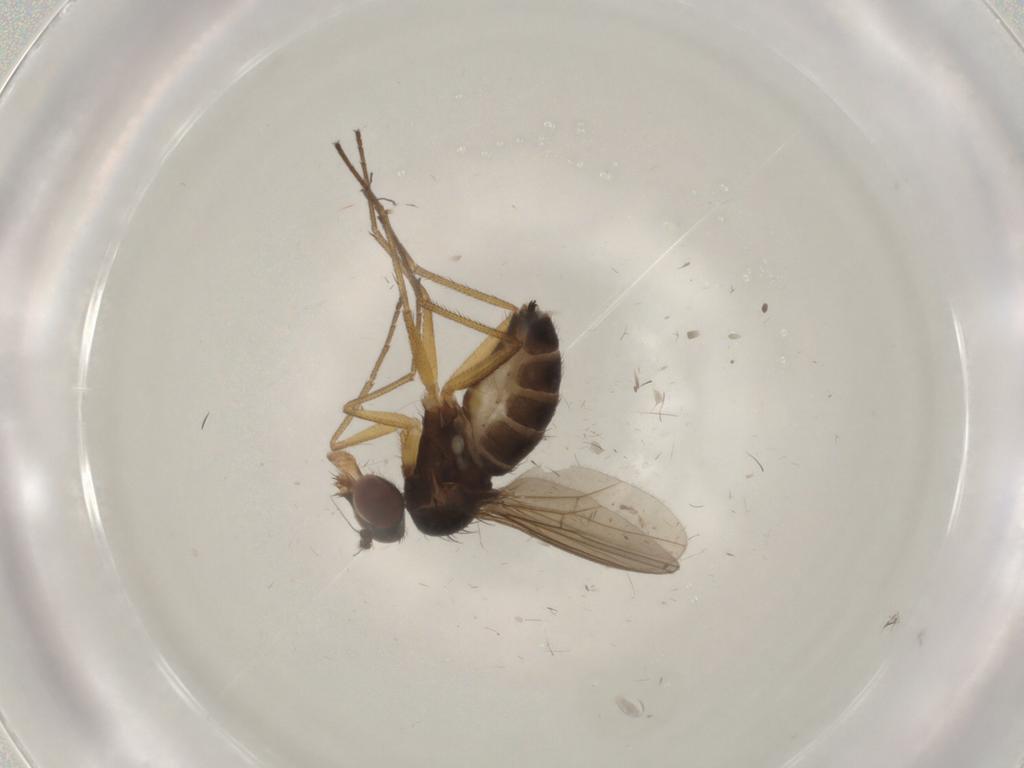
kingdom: Animalia
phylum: Arthropoda
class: Insecta
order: Diptera
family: Dolichopodidae
